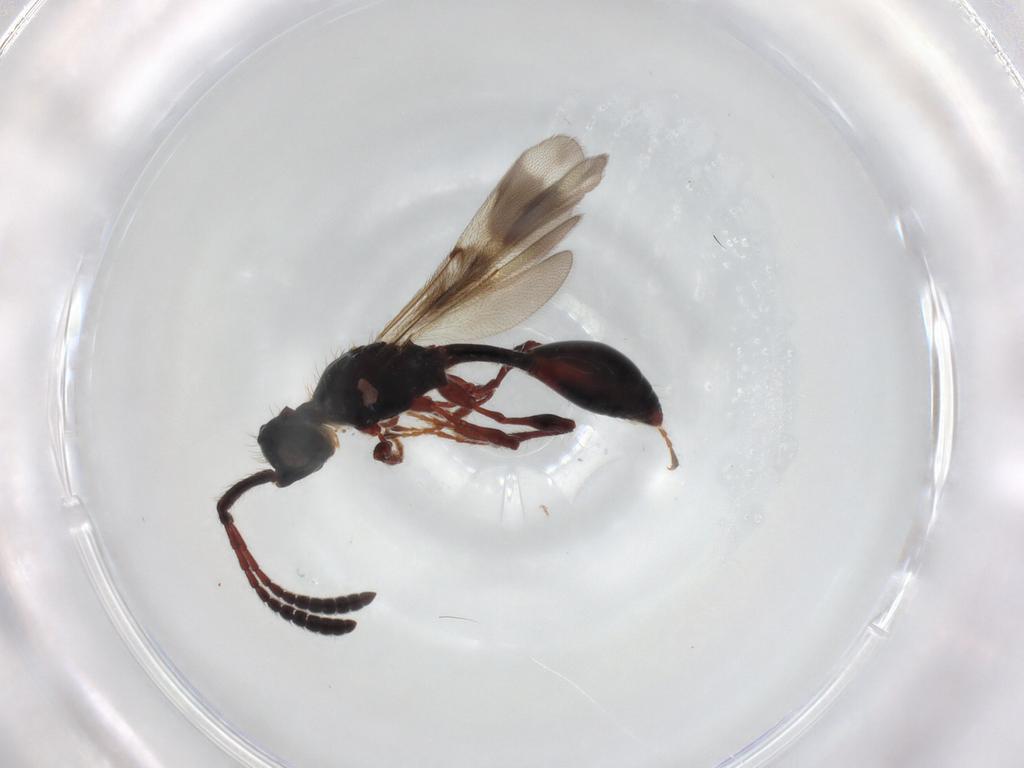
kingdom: Animalia
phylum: Arthropoda
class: Insecta
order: Hymenoptera
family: Diapriidae
